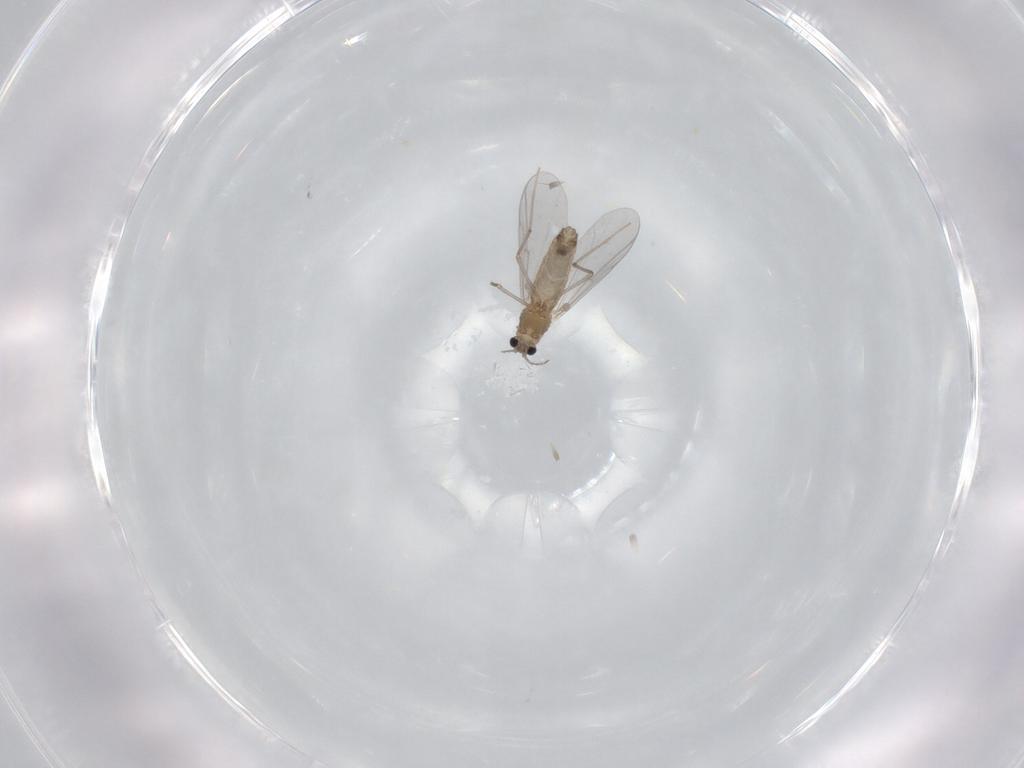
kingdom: Animalia
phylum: Arthropoda
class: Insecta
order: Diptera
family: Chironomidae
